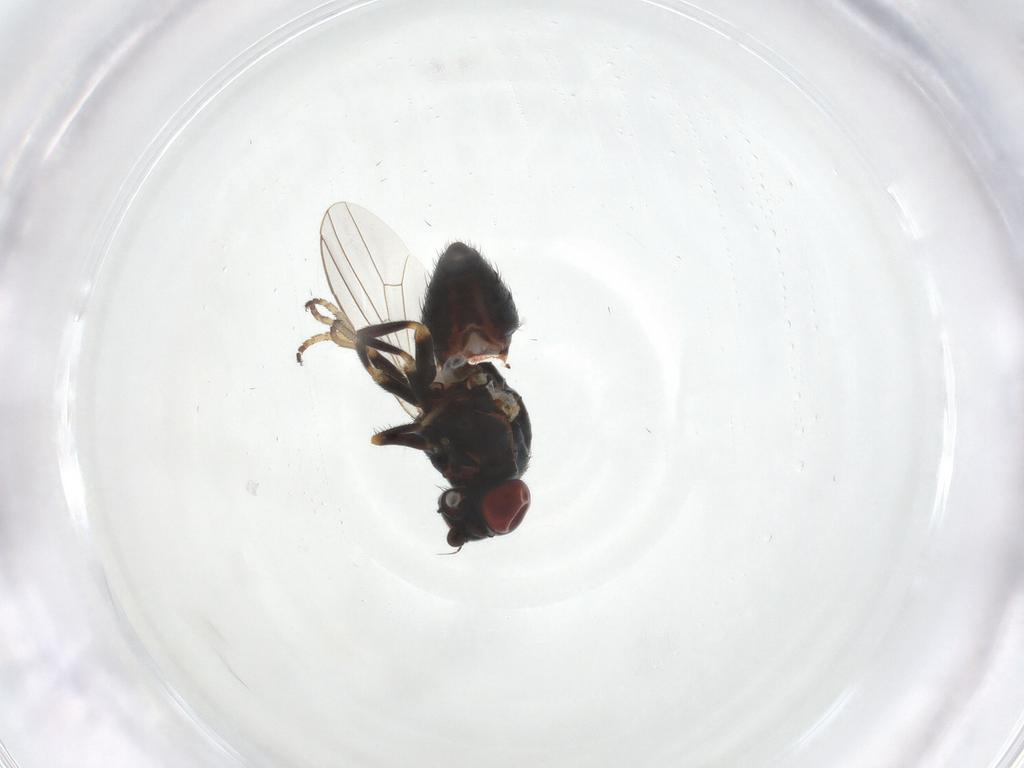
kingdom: Animalia
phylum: Arthropoda
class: Insecta
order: Diptera
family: Chamaemyiidae
